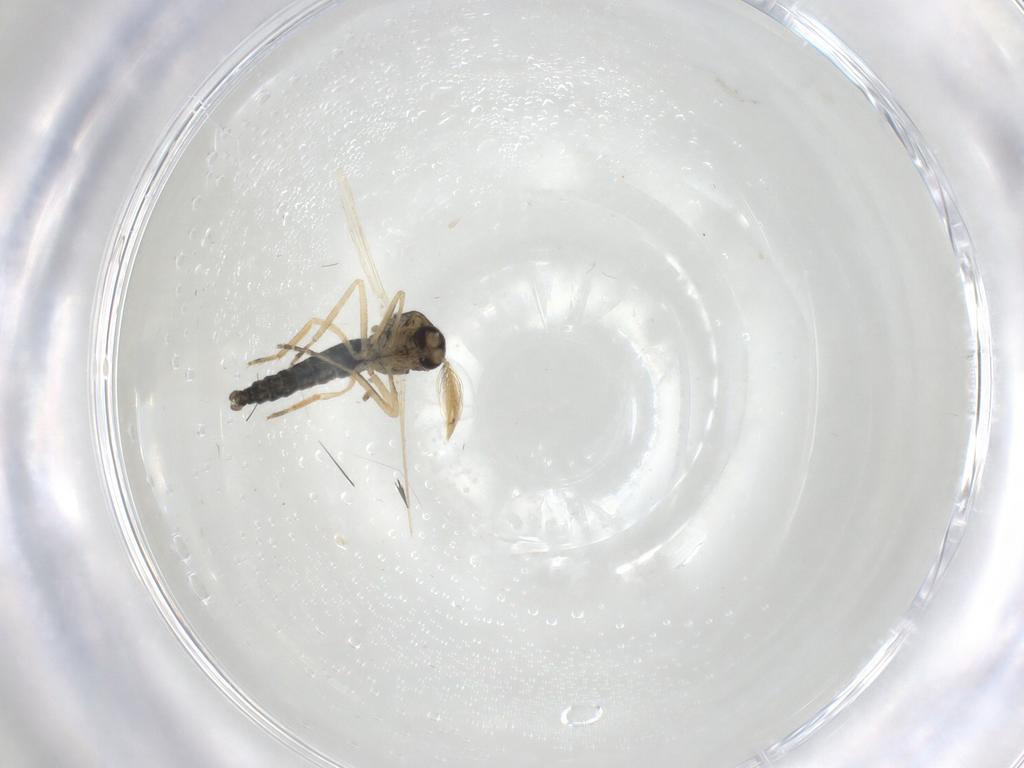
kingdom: Animalia
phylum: Arthropoda
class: Insecta
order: Diptera
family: Ceratopogonidae
